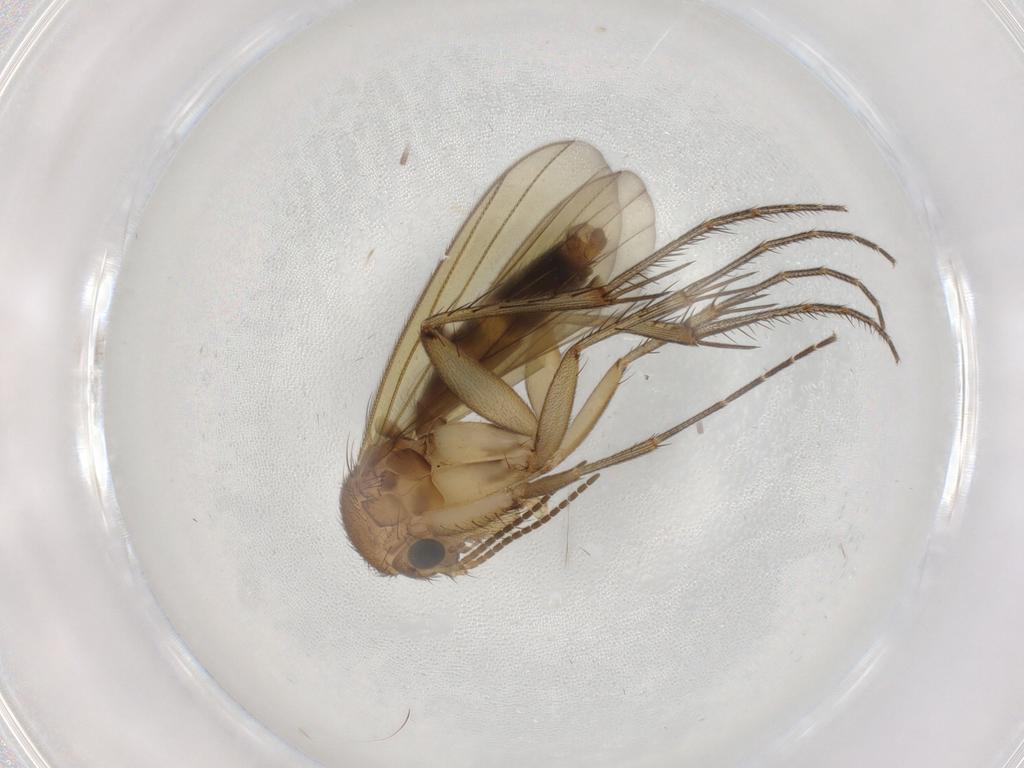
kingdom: Animalia
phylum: Arthropoda
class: Insecta
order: Diptera
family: Mycetophilidae
